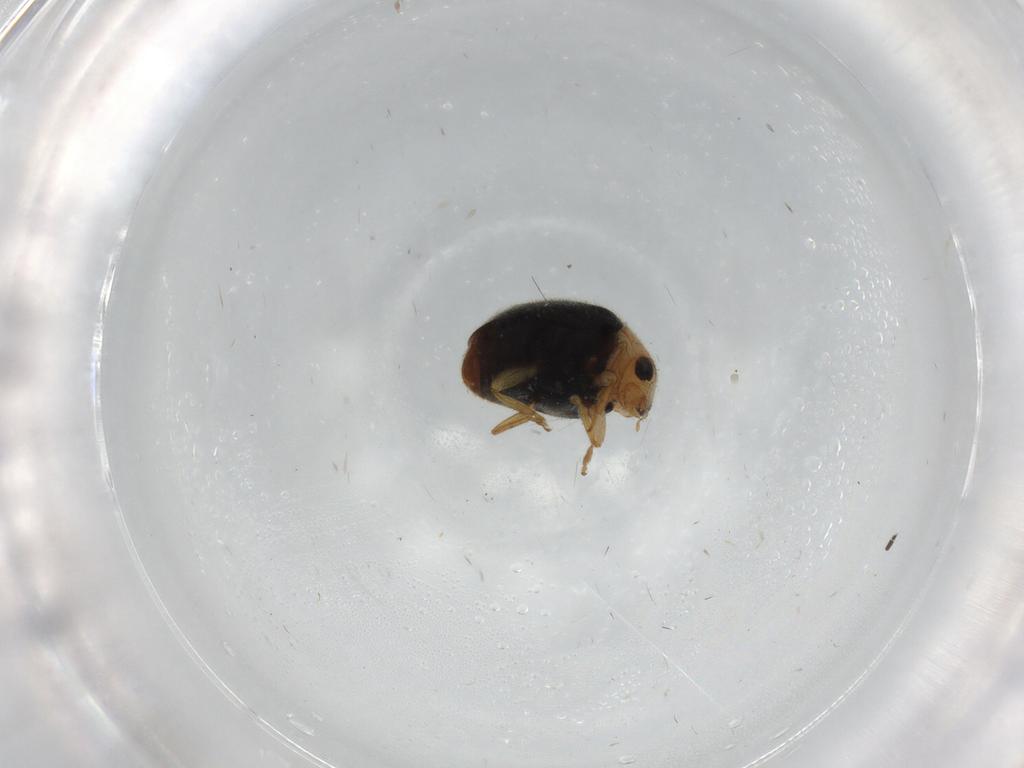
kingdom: Animalia
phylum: Arthropoda
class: Insecta
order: Coleoptera
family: Coccinellidae
